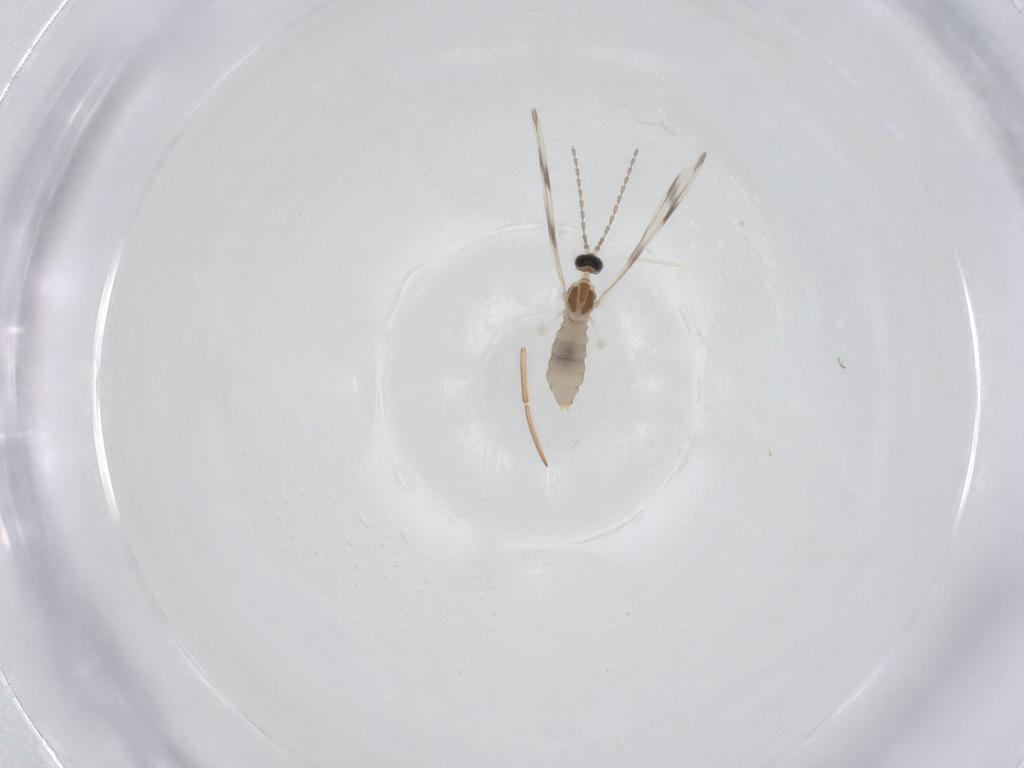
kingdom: Animalia
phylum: Arthropoda
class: Insecta
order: Diptera
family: Cecidomyiidae
